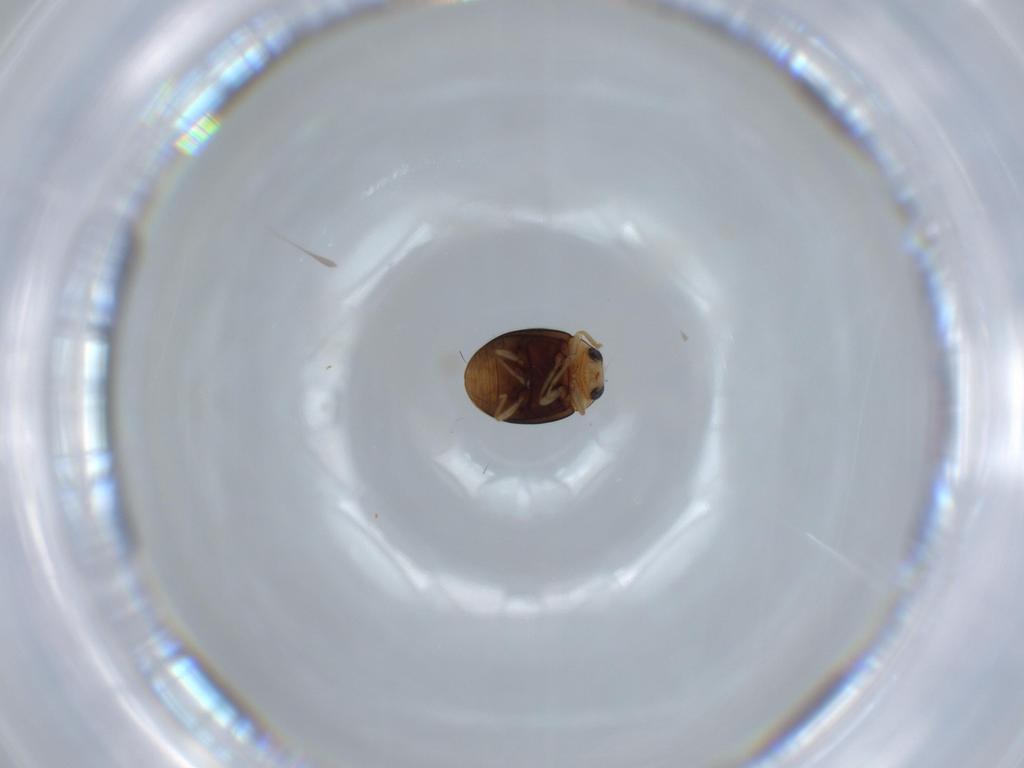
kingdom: Animalia
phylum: Arthropoda
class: Insecta
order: Coleoptera
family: Coccinellidae
